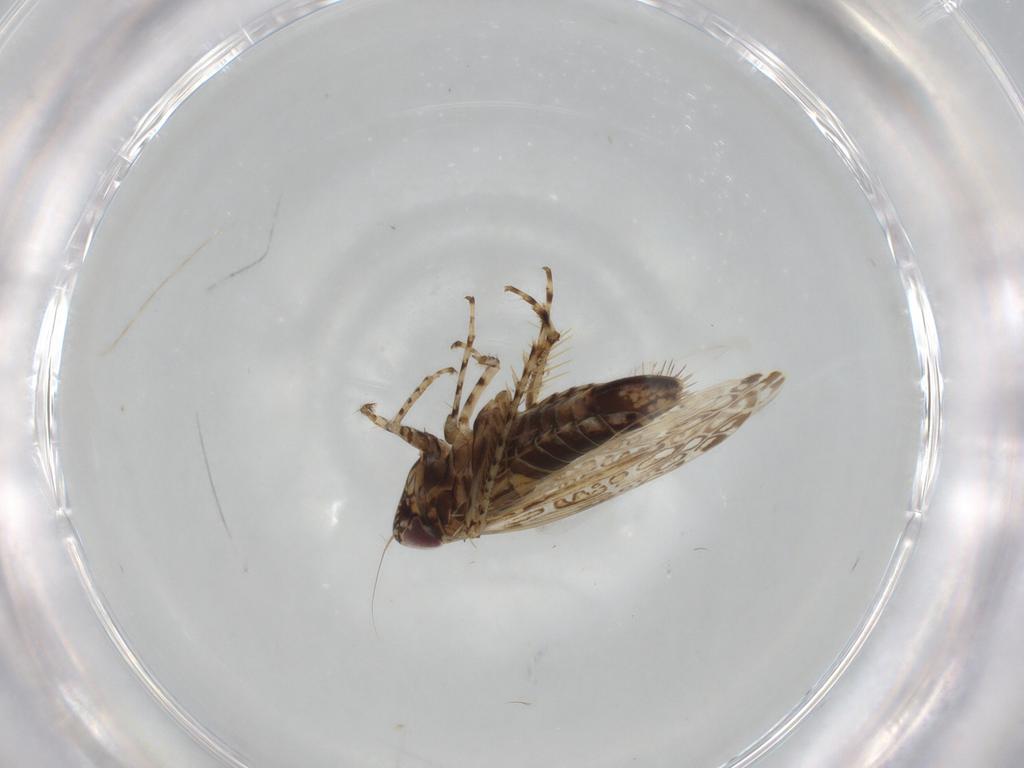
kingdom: Animalia
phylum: Arthropoda
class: Insecta
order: Hemiptera
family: Cicadellidae
